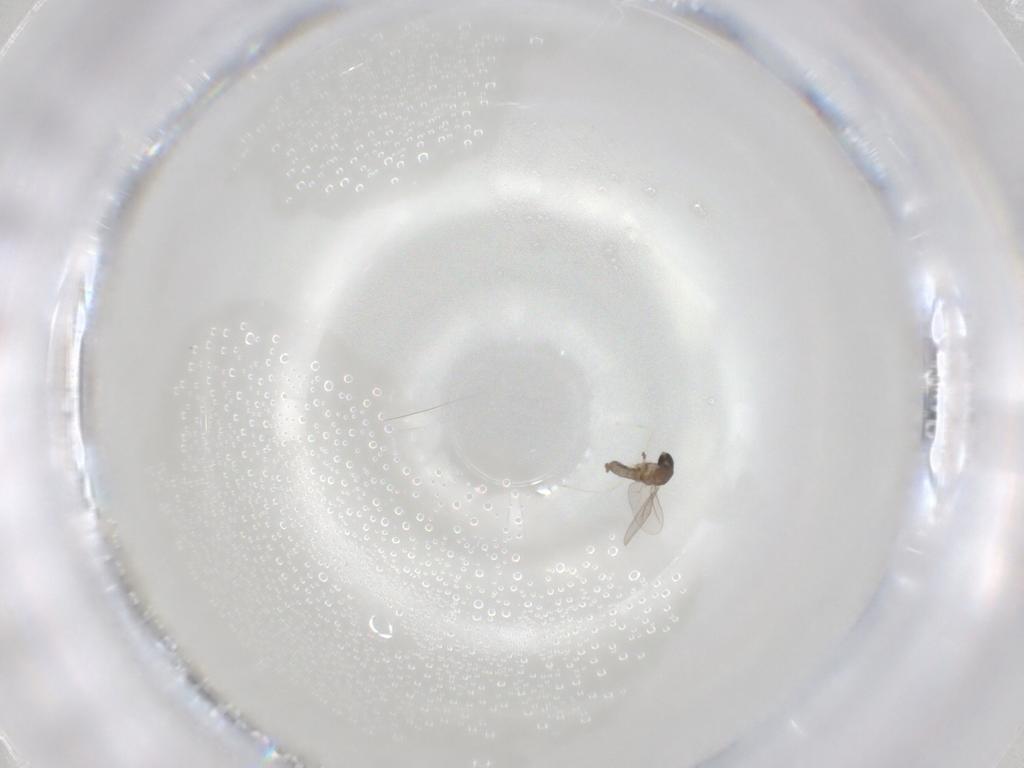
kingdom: Animalia
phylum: Arthropoda
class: Insecta
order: Diptera
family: Cecidomyiidae
